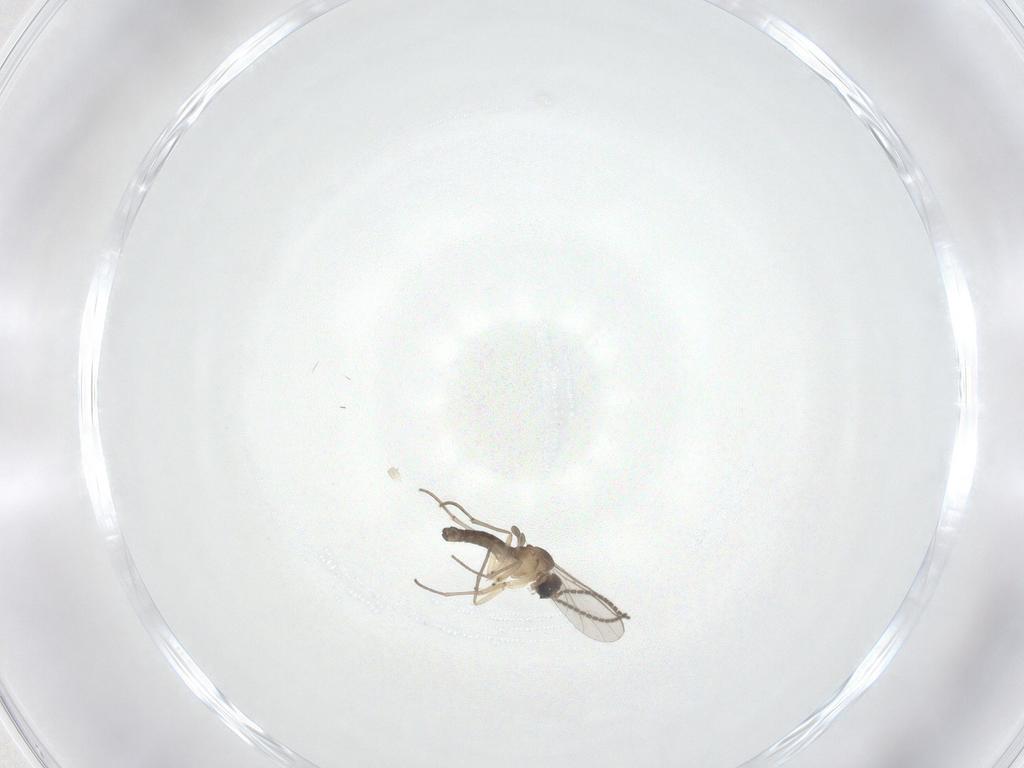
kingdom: Animalia
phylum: Arthropoda
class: Insecta
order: Diptera
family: Sciaridae
